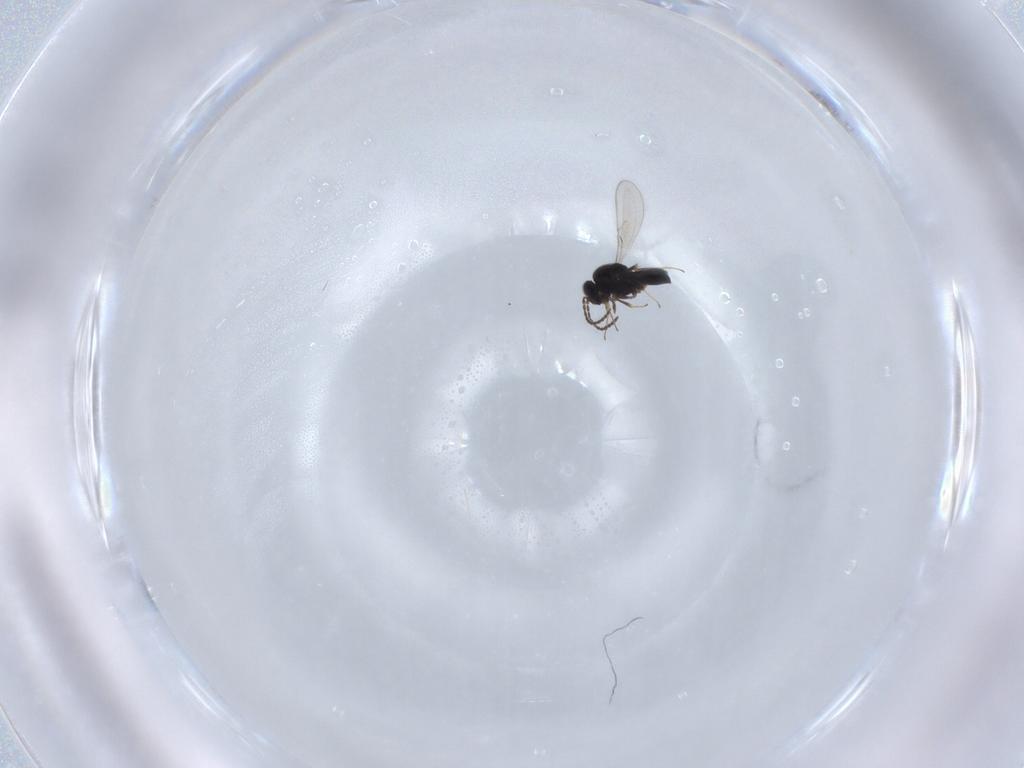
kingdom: Animalia
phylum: Arthropoda
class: Insecta
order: Hymenoptera
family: Scelionidae
